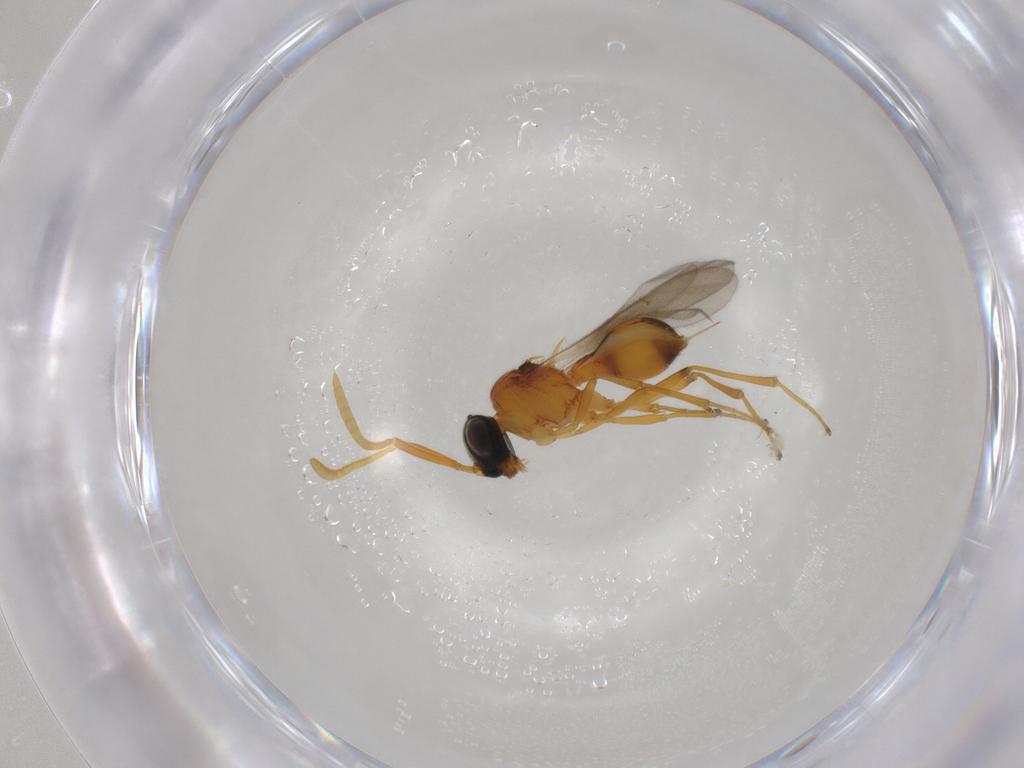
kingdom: Animalia
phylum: Arthropoda
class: Insecta
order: Hymenoptera
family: Scelionidae
